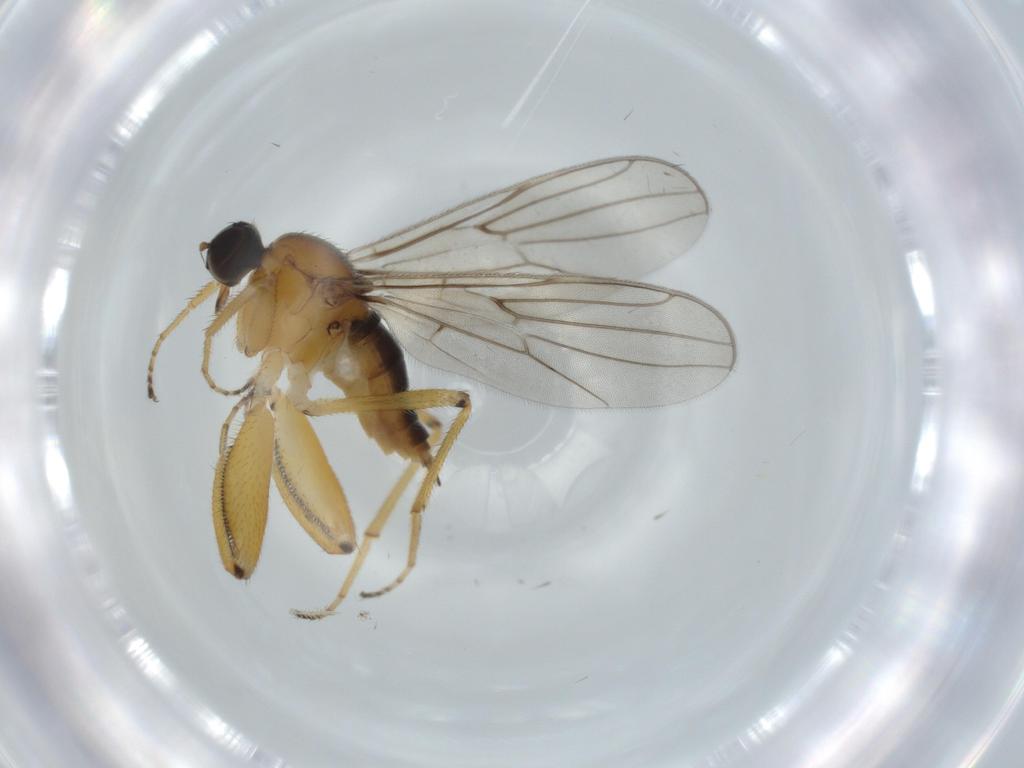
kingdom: Animalia
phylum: Arthropoda
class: Insecta
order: Diptera
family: Hybotidae
